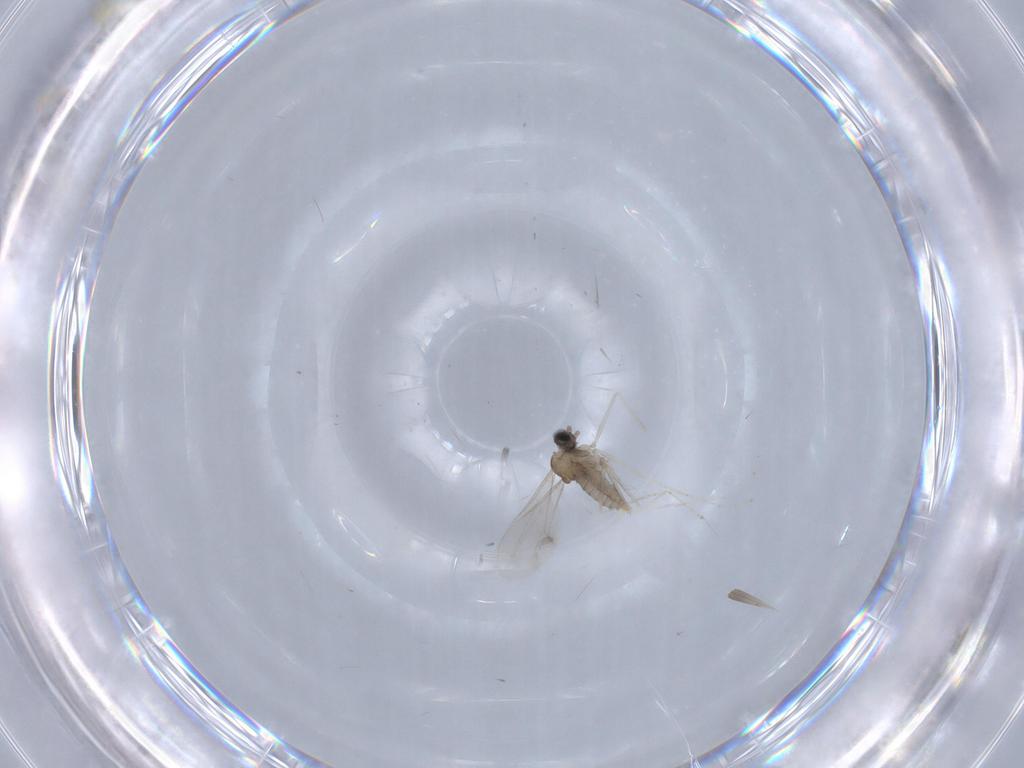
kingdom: Animalia
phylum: Arthropoda
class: Insecta
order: Diptera
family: Cecidomyiidae
